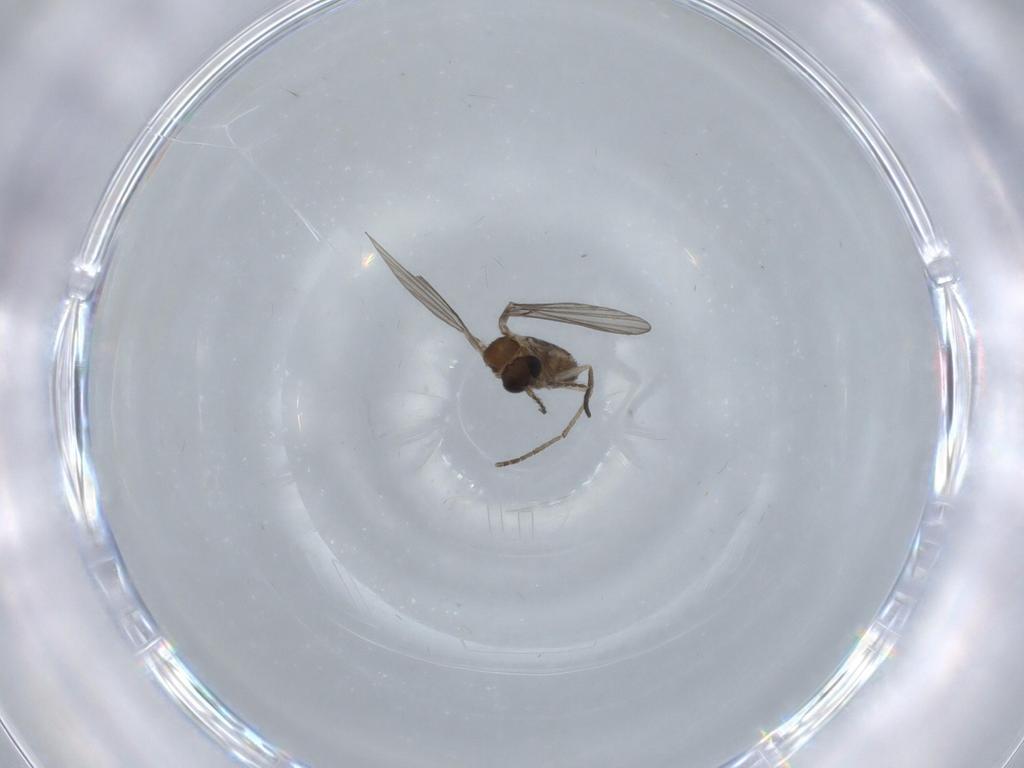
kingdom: Animalia
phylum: Arthropoda
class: Insecta
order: Diptera
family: Psychodidae
